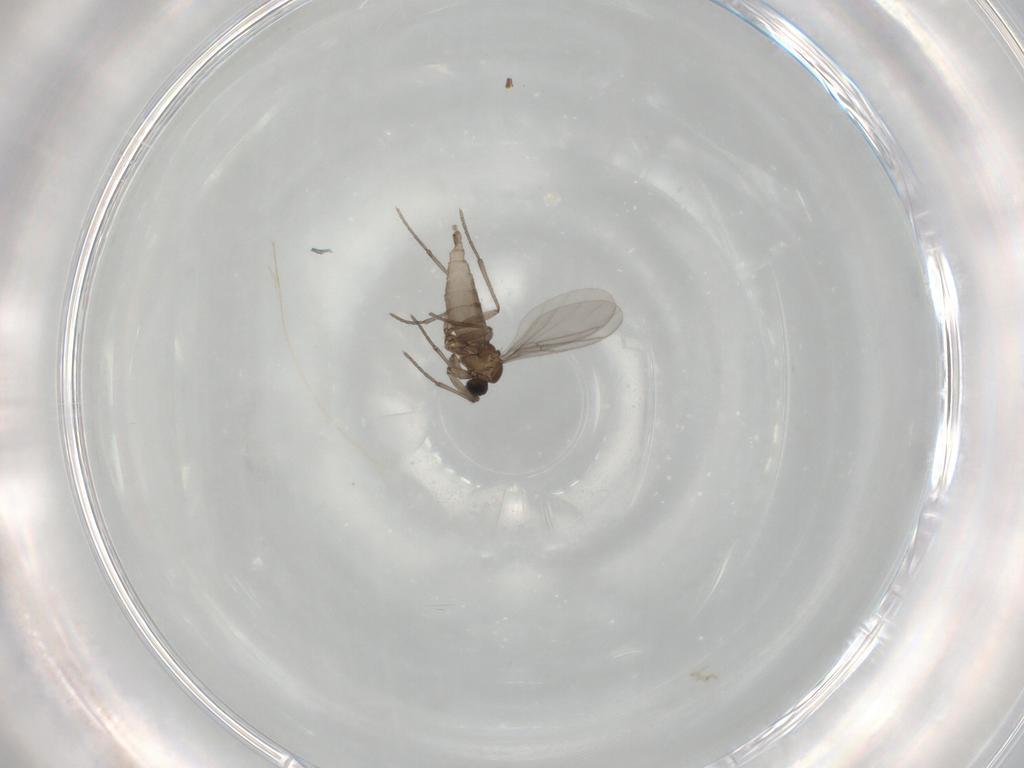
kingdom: Animalia
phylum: Arthropoda
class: Insecta
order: Diptera
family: Sciaridae
